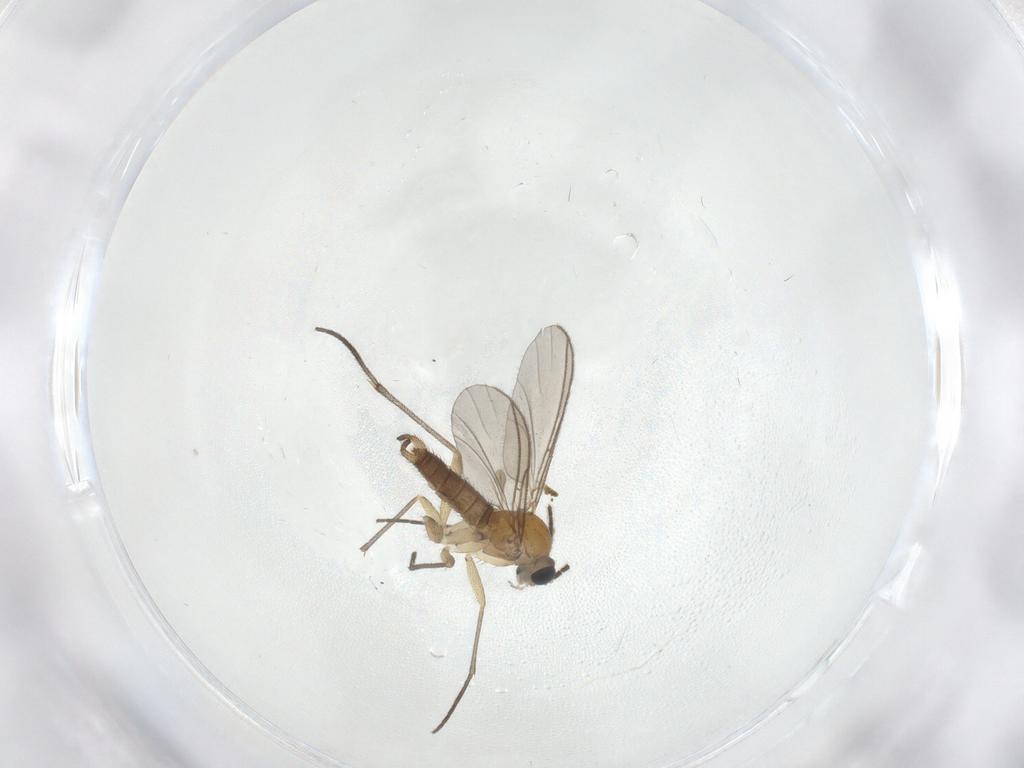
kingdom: Animalia
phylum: Arthropoda
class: Insecta
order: Diptera
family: Sciaridae
